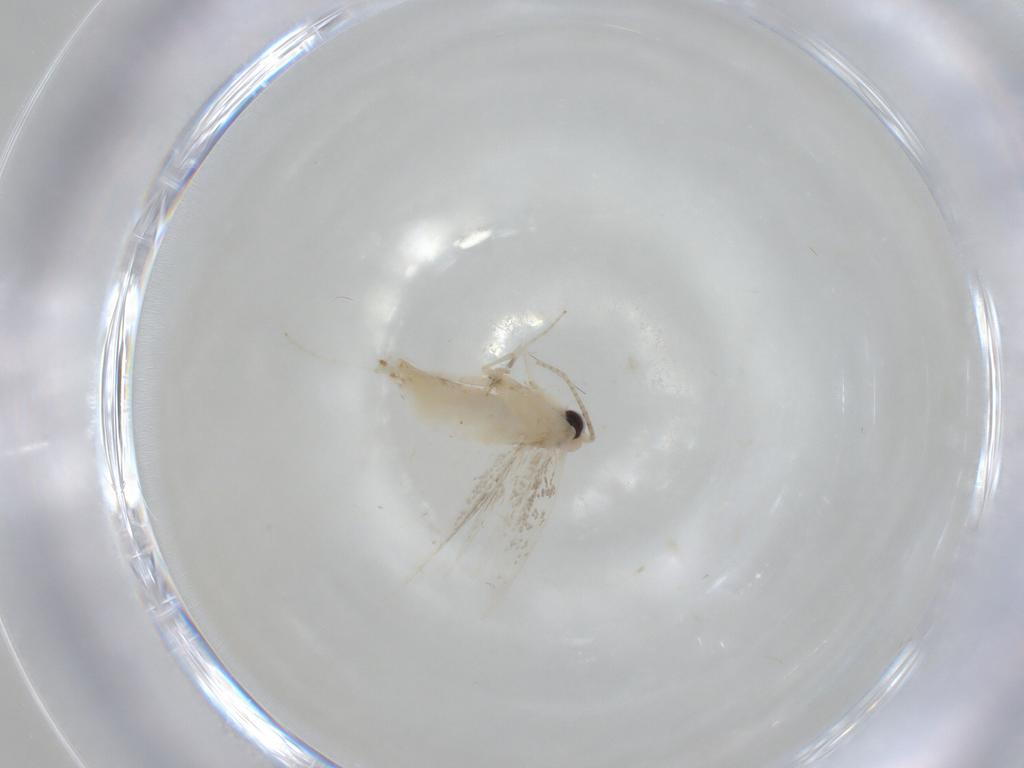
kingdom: Animalia
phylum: Arthropoda
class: Insecta
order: Lepidoptera
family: Gracillariidae
